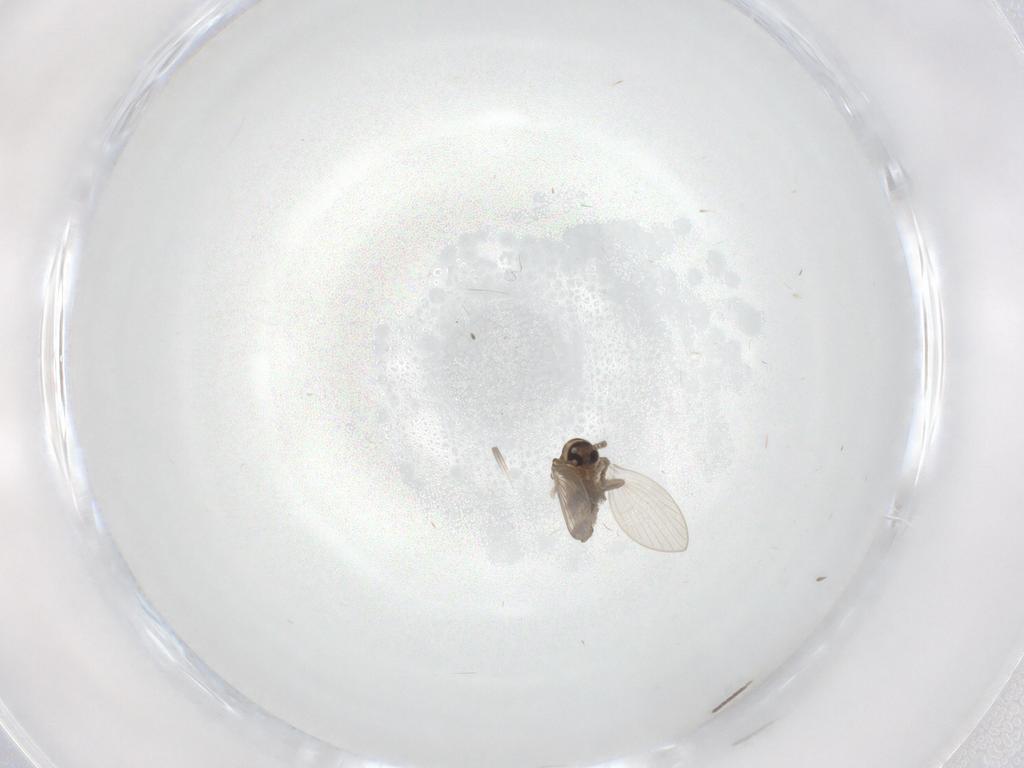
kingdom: Animalia
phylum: Arthropoda
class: Insecta
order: Diptera
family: Psychodidae
